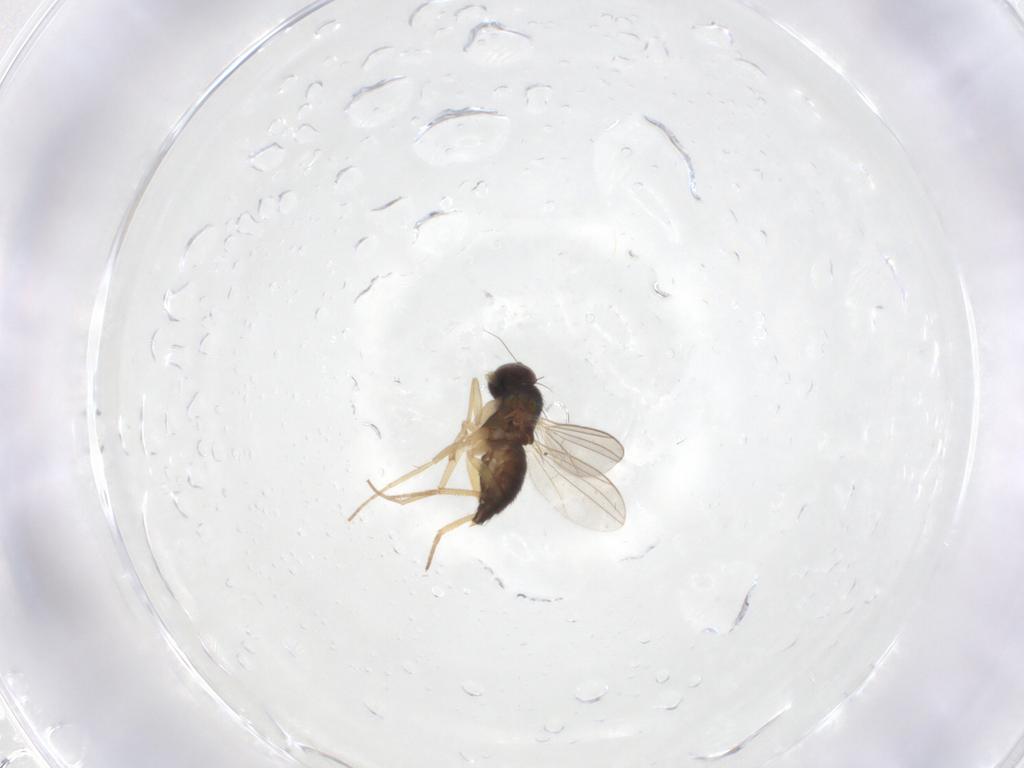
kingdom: Animalia
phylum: Arthropoda
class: Insecta
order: Diptera
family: Dolichopodidae
